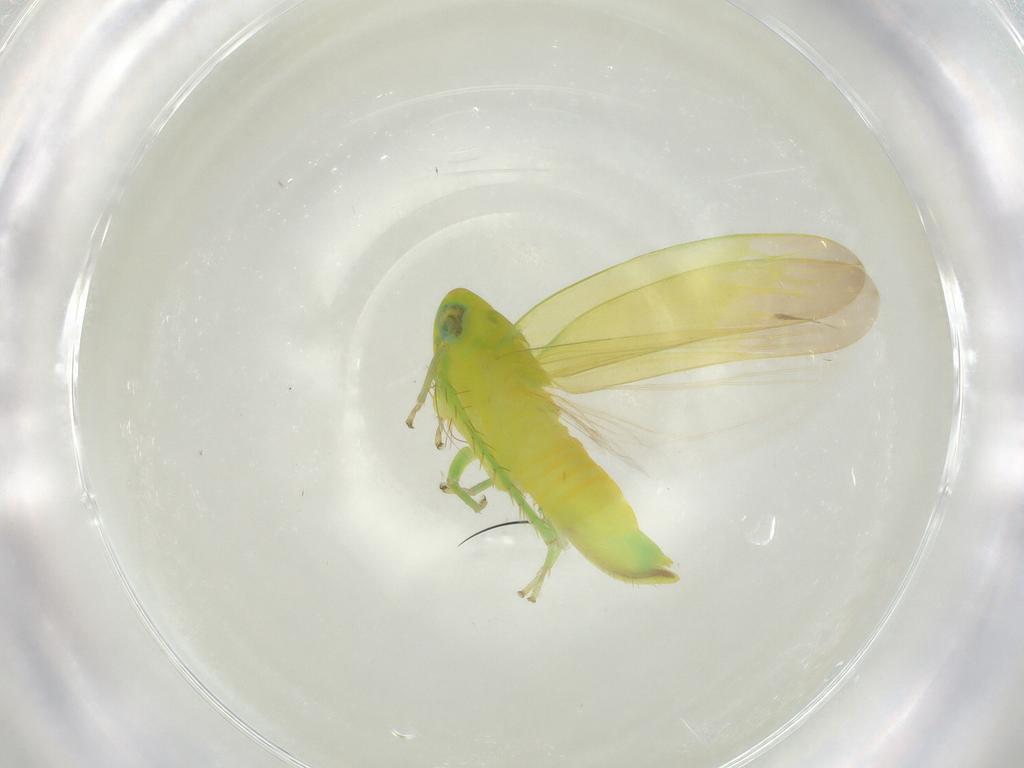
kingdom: Animalia
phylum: Arthropoda
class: Insecta
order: Hemiptera
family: Cicadellidae
